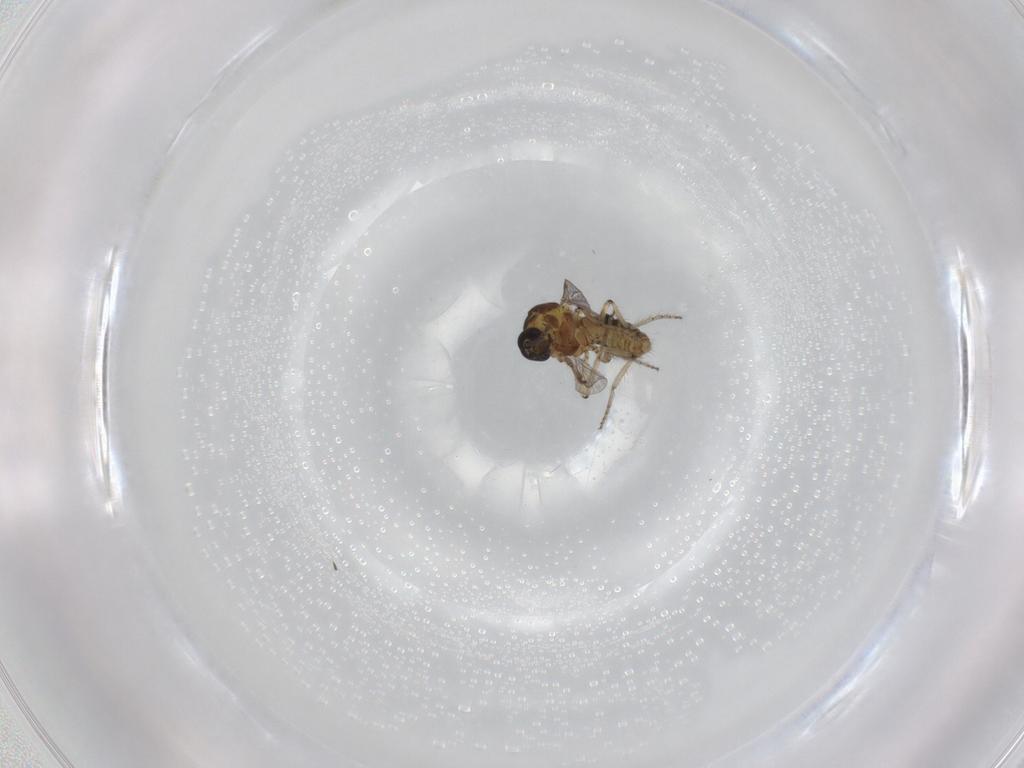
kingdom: Animalia
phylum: Arthropoda
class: Insecta
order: Diptera
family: Ceratopogonidae
